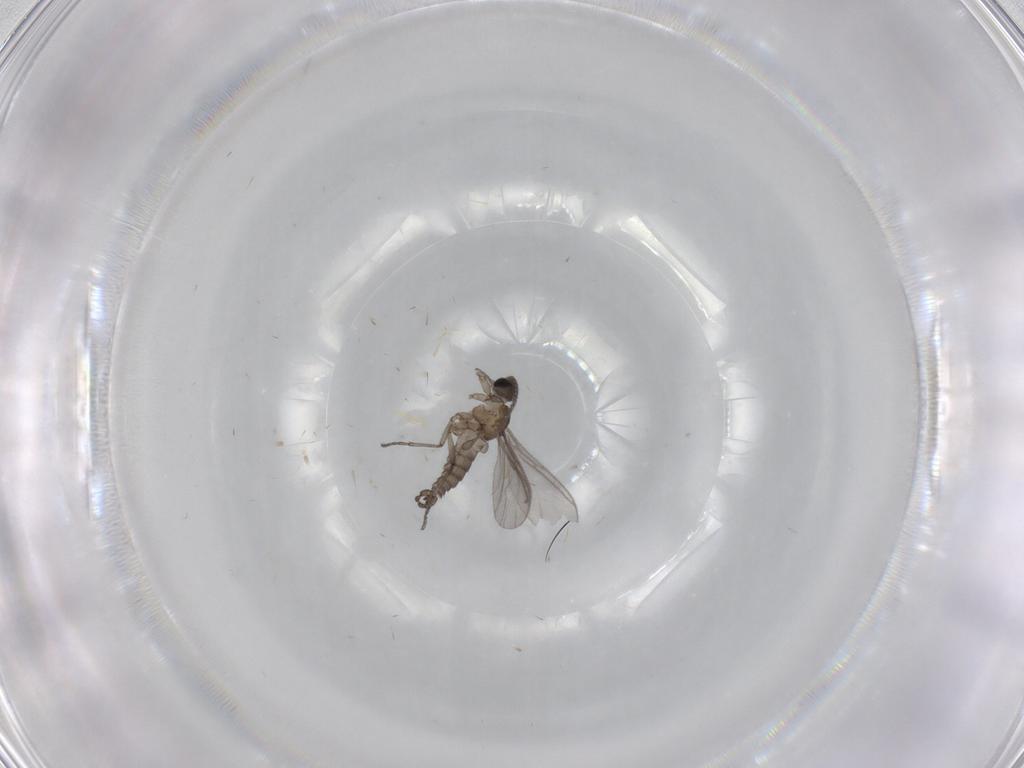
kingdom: Animalia
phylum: Arthropoda
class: Insecta
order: Diptera
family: Sciaridae
